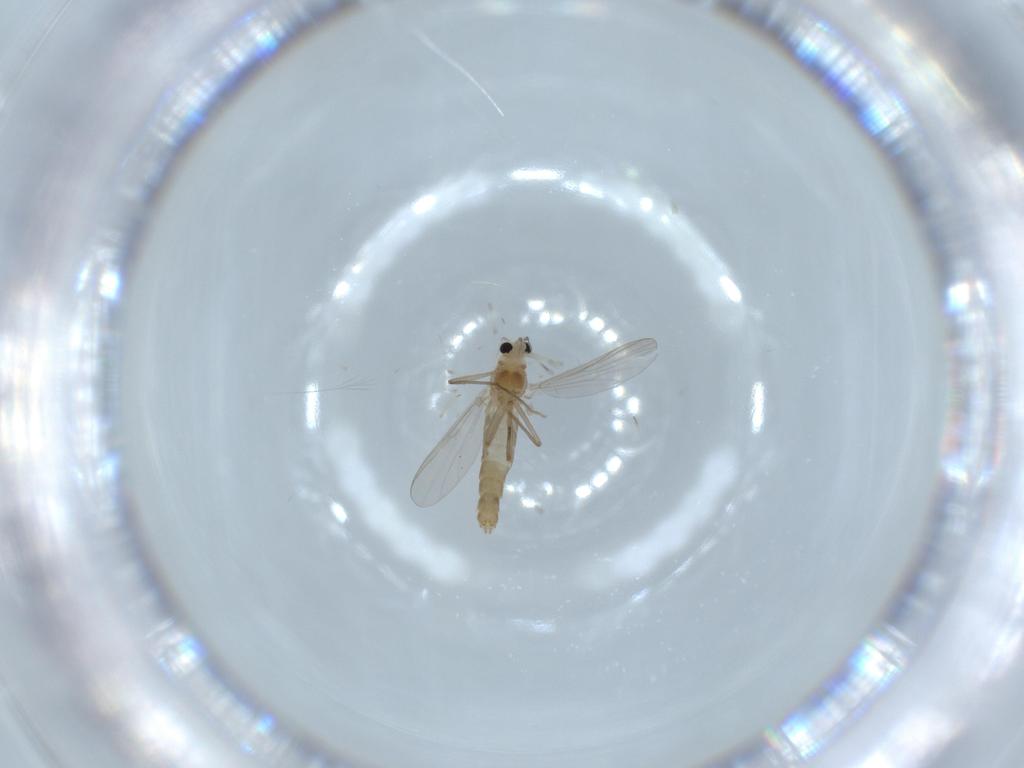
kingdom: Animalia
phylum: Arthropoda
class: Insecta
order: Diptera
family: Chironomidae
